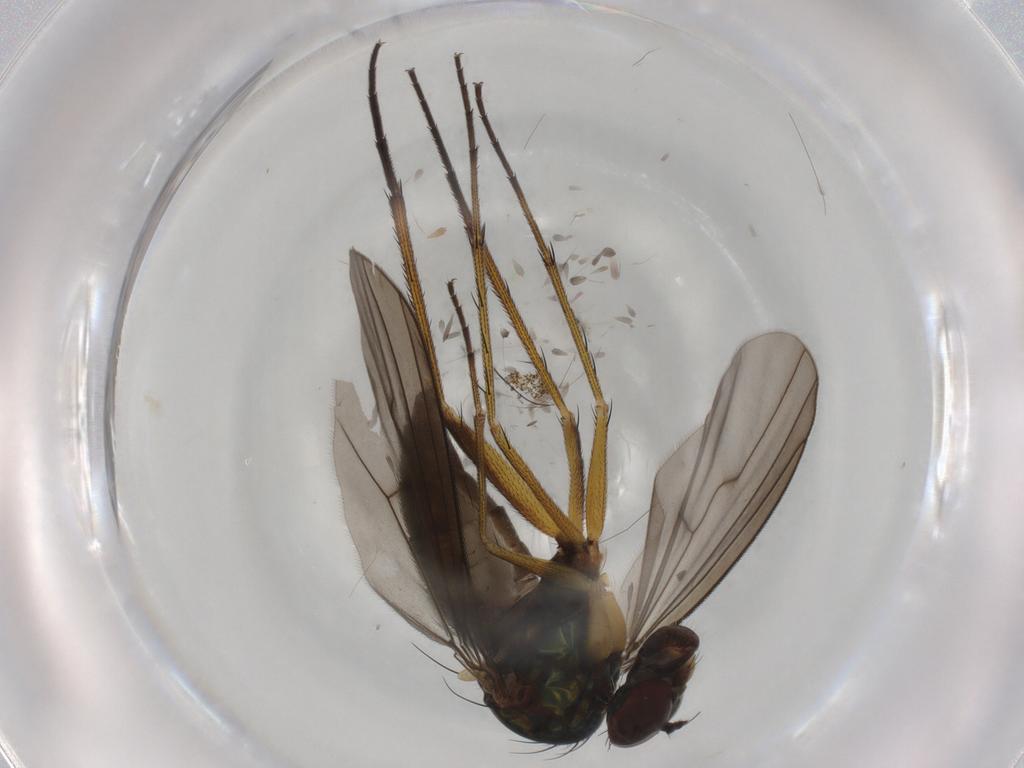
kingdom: Animalia
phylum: Arthropoda
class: Insecta
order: Diptera
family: Dolichopodidae
